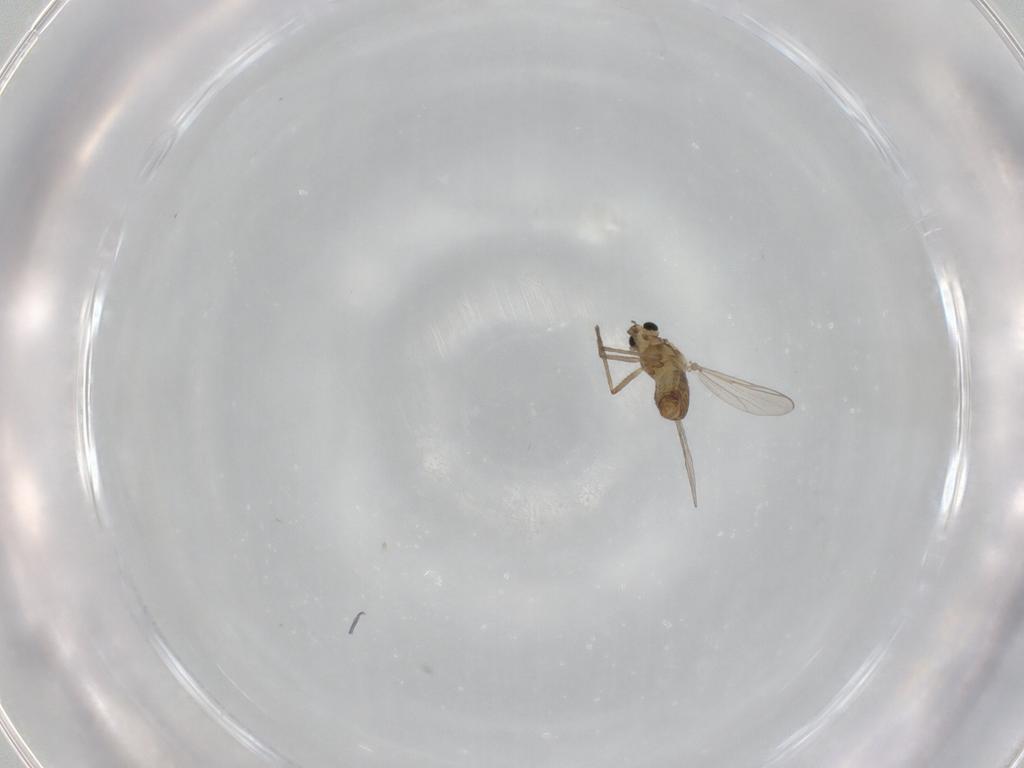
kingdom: Animalia
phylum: Arthropoda
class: Insecta
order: Diptera
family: Chironomidae
